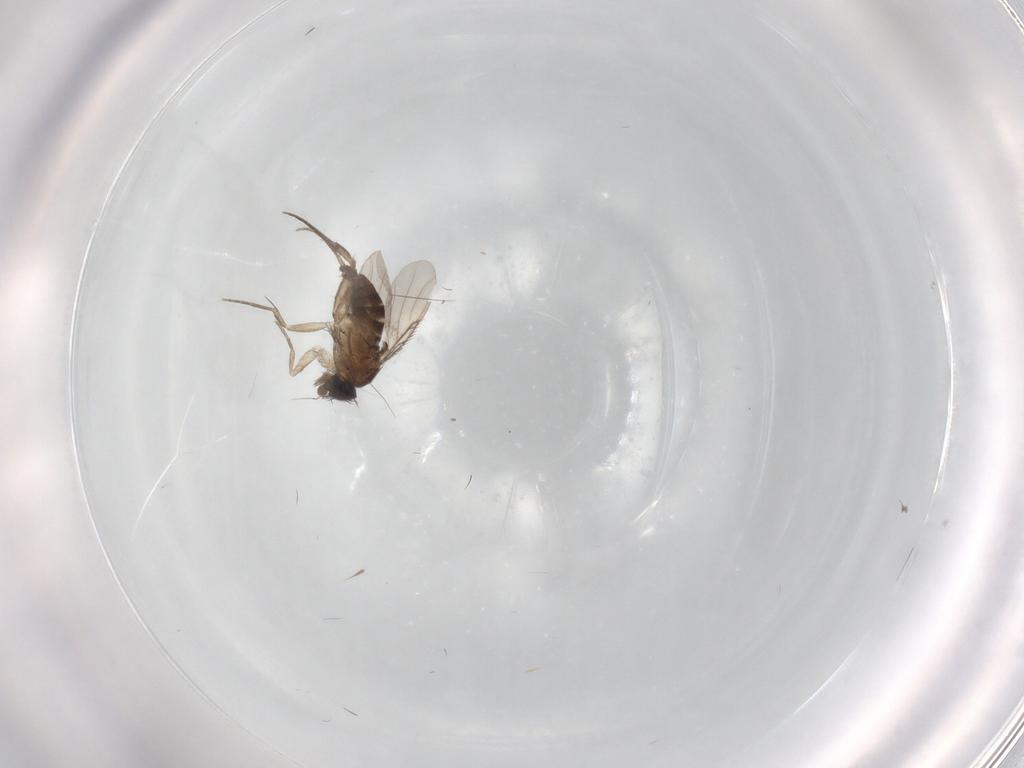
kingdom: Animalia
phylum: Arthropoda
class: Insecta
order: Diptera
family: Phoridae
